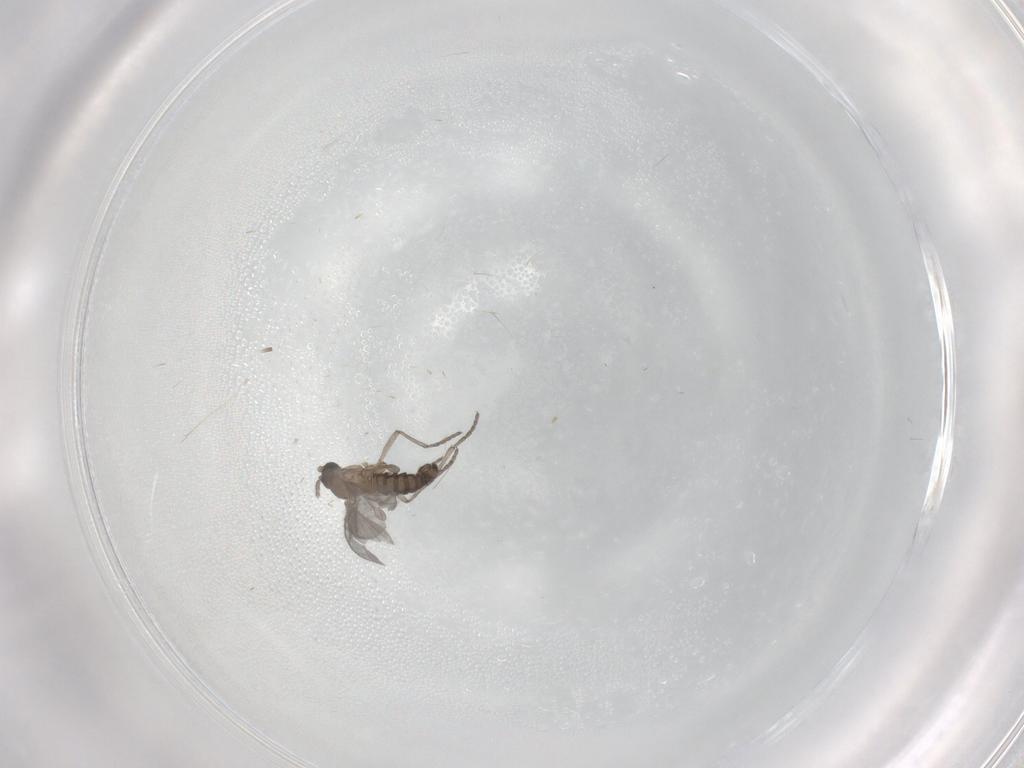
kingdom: Animalia
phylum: Arthropoda
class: Insecta
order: Diptera
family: Sciaridae
